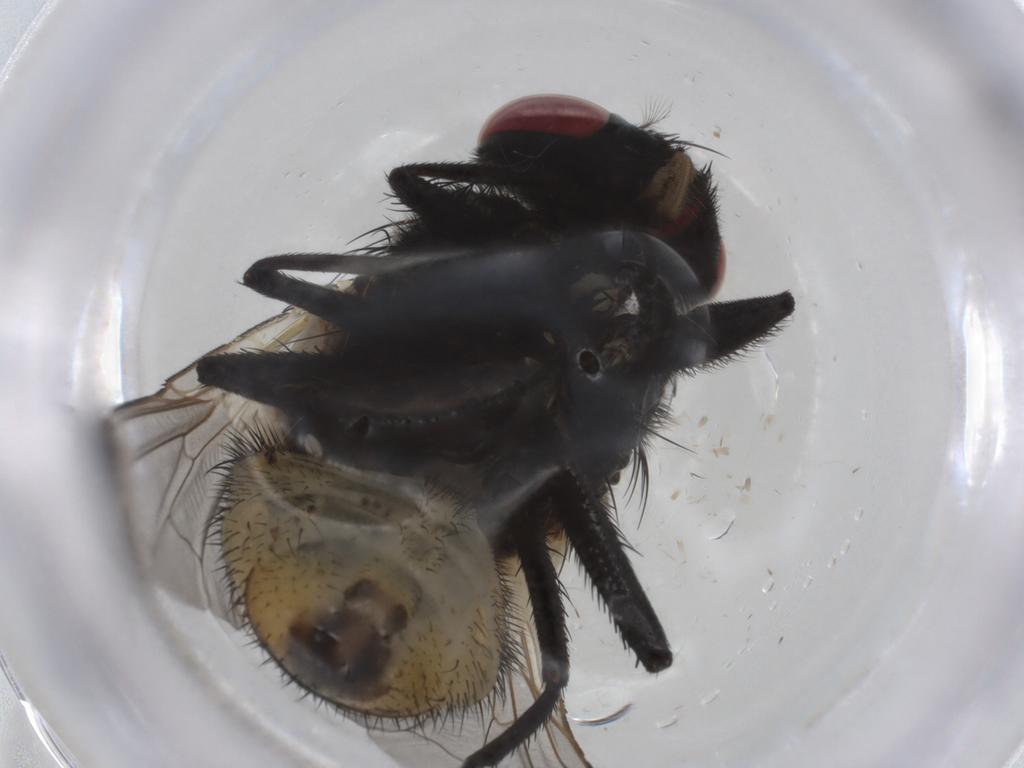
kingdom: Animalia
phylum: Arthropoda
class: Insecta
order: Diptera
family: Muscidae
